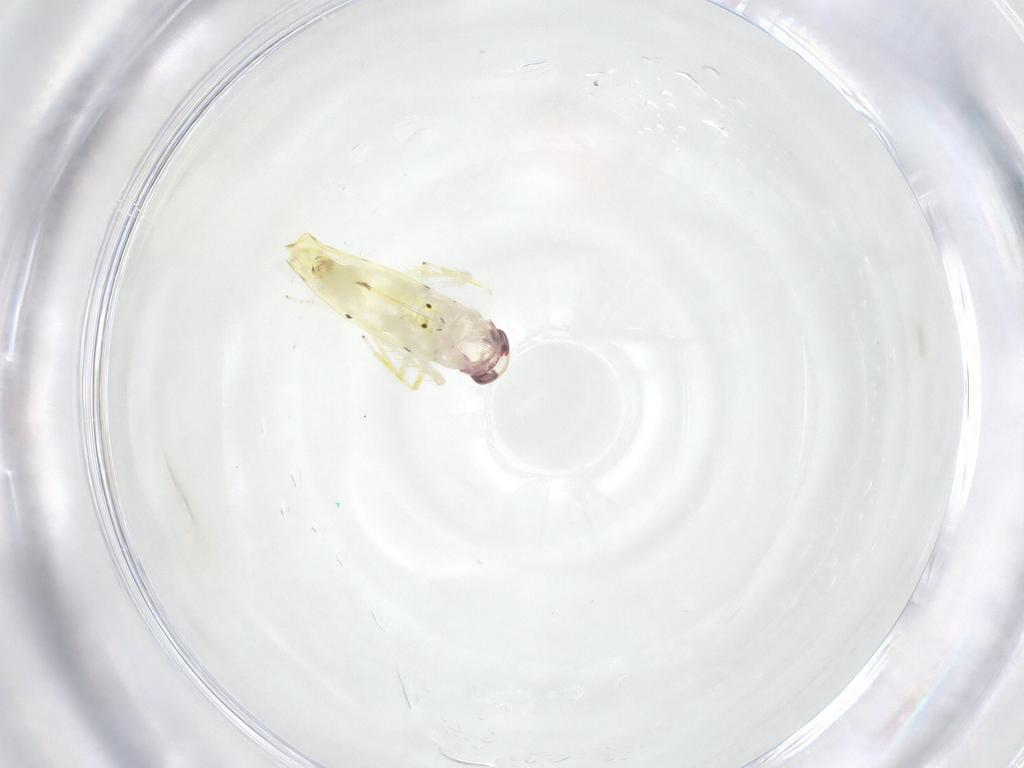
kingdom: Animalia
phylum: Arthropoda
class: Insecta
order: Hemiptera
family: Cicadellidae
